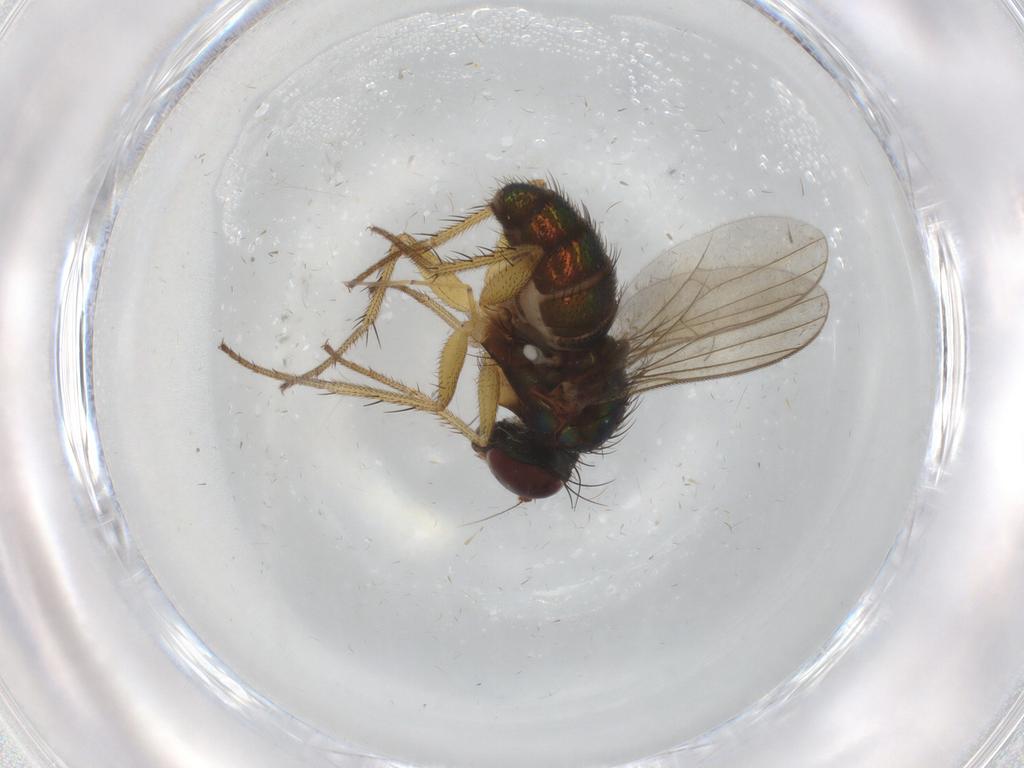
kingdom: Animalia
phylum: Arthropoda
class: Insecta
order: Diptera
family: Dolichopodidae
